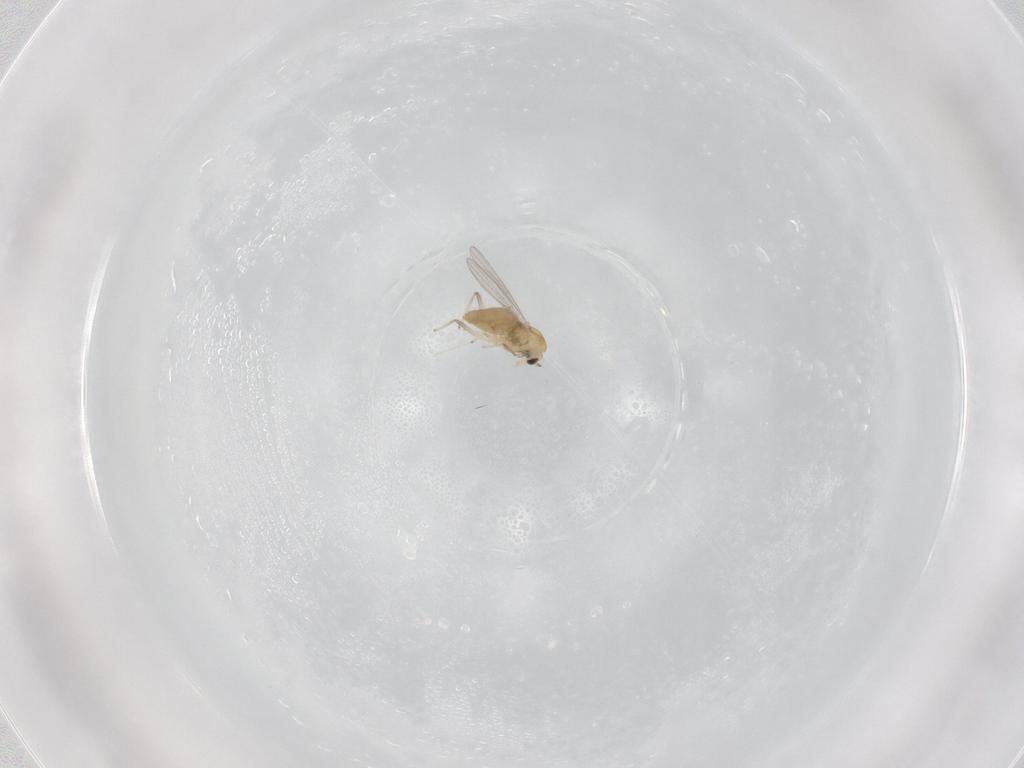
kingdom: Animalia
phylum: Arthropoda
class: Insecta
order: Diptera
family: Chironomidae
